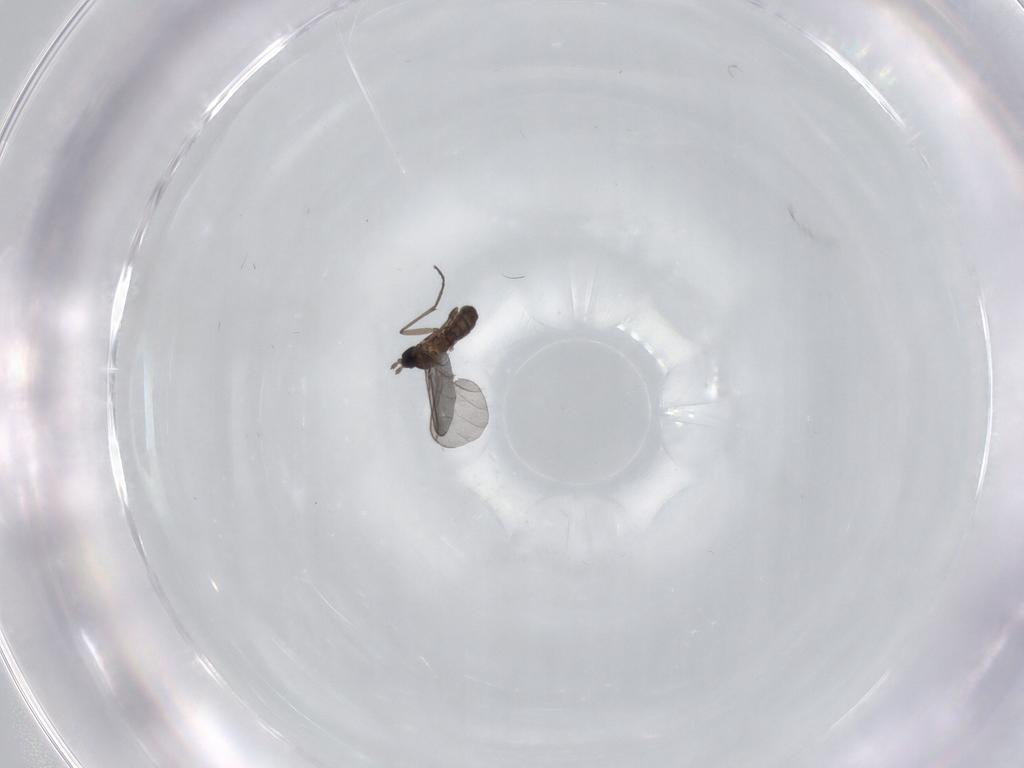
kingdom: Animalia
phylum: Arthropoda
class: Insecta
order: Diptera
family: Sciaridae
